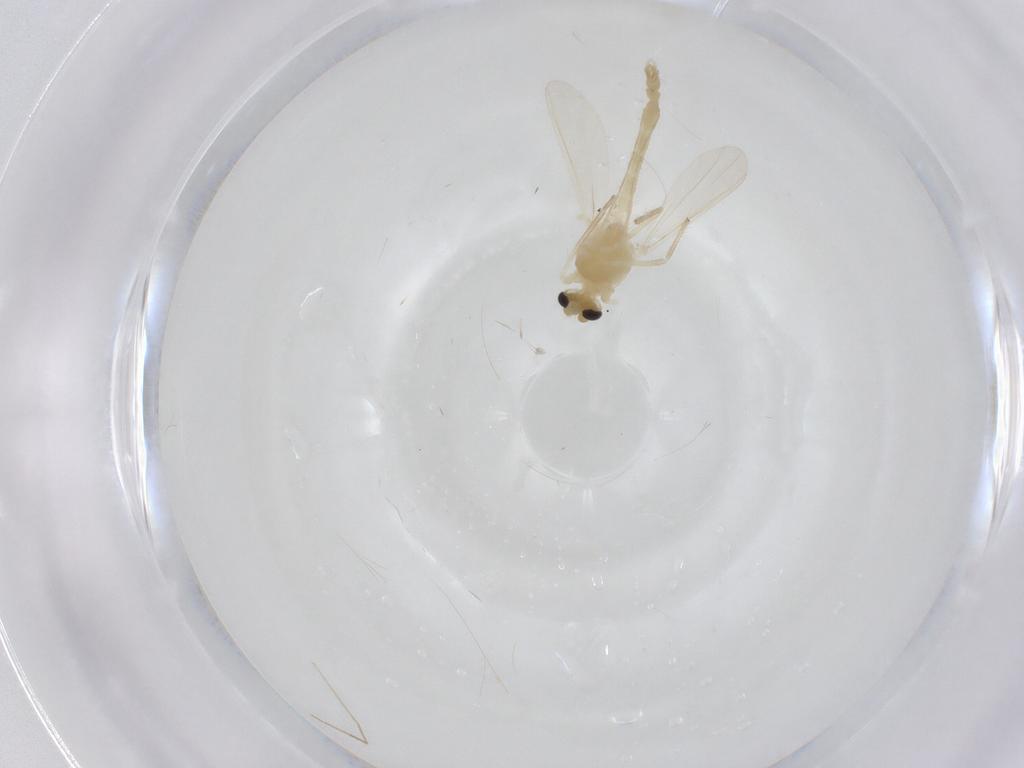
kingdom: Animalia
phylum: Arthropoda
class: Insecta
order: Diptera
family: Chironomidae
